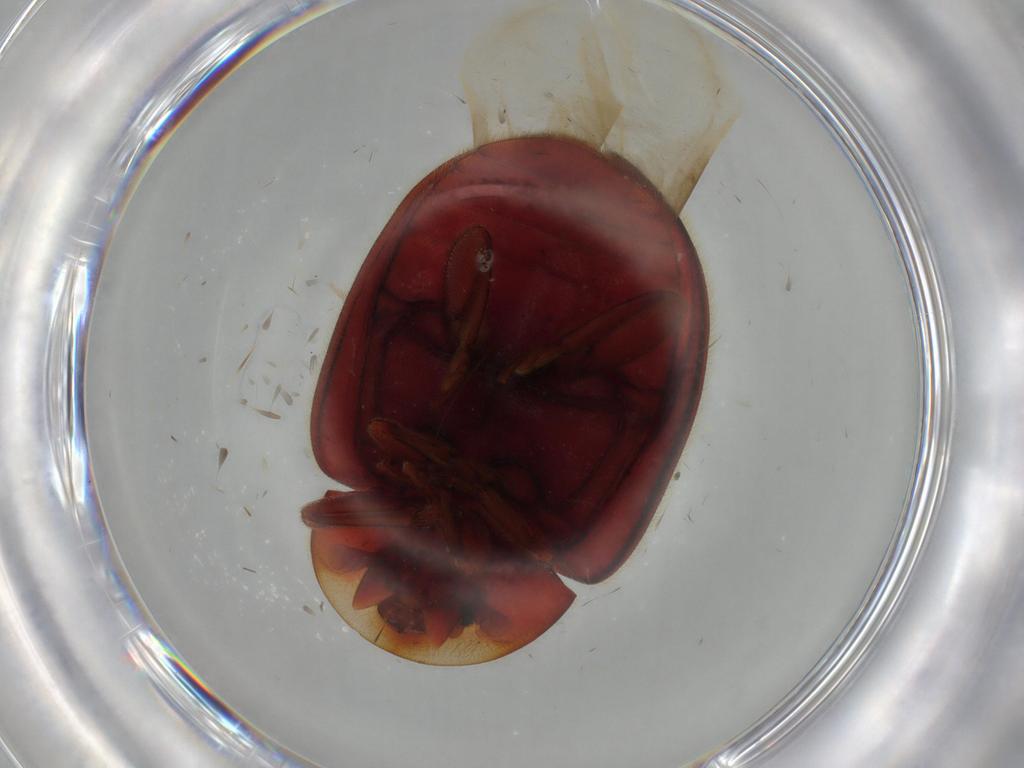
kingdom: Animalia
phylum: Arthropoda
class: Insecta
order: Coleoptera
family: Coccinellidae
